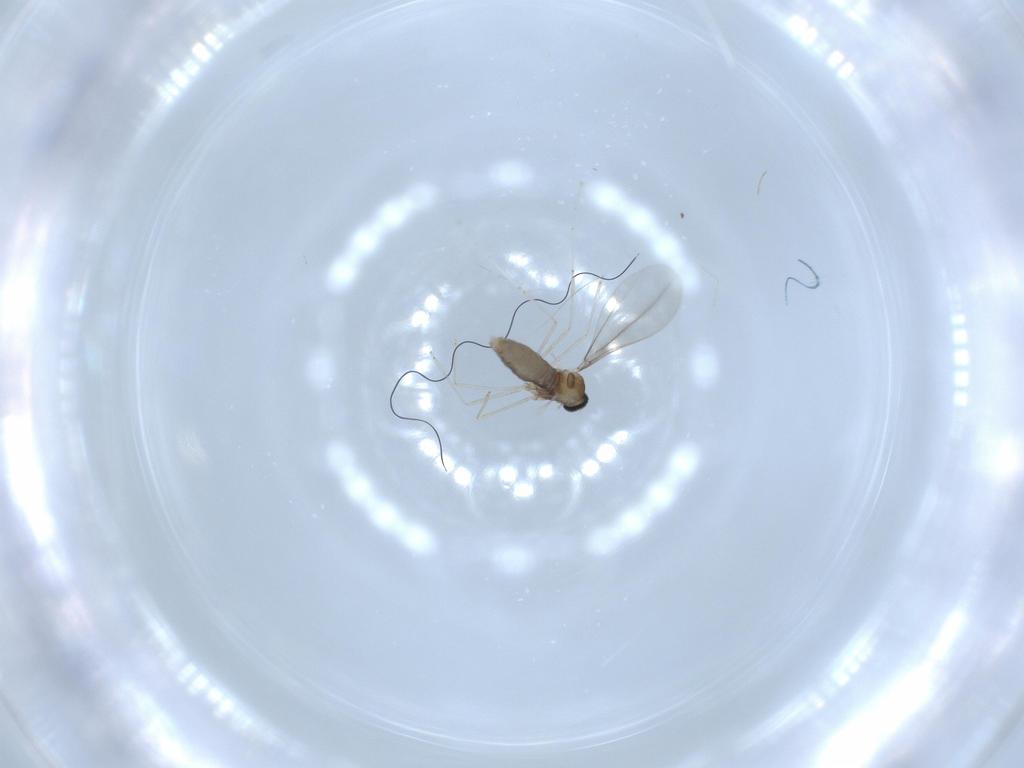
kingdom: Animalia
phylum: Arthropoda
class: Insecta
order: Diptera
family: Cecidomyiidae
